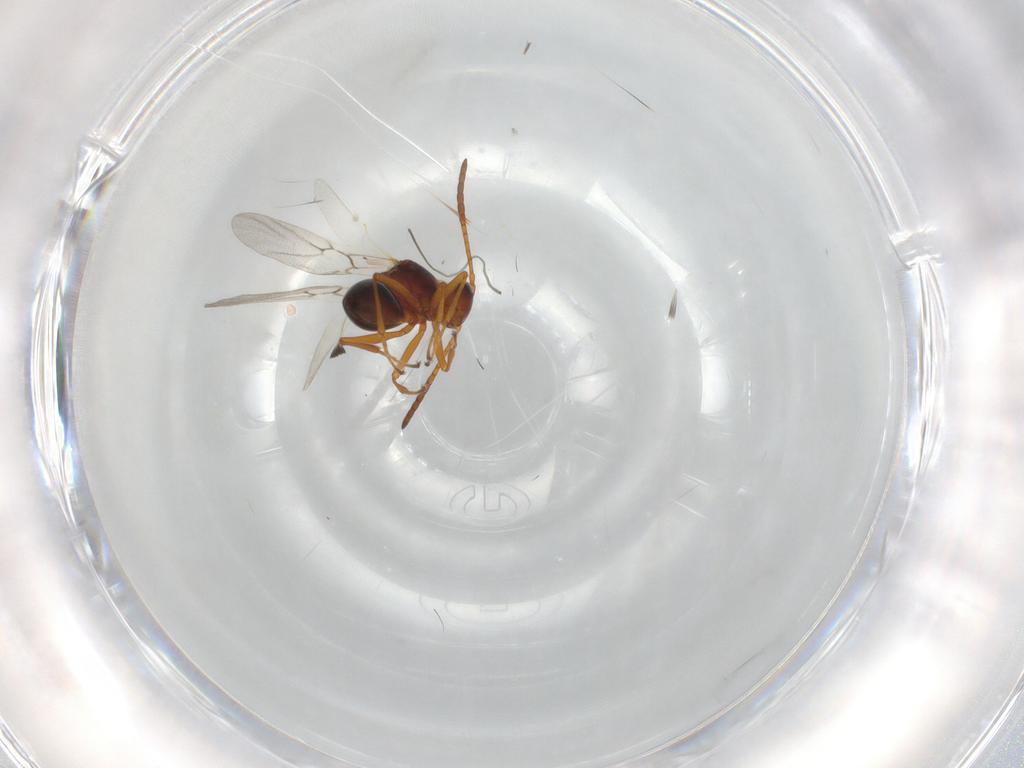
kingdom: Animalia
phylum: Arthropoda
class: Insecta
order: Hymenoptera
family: Figitidae
